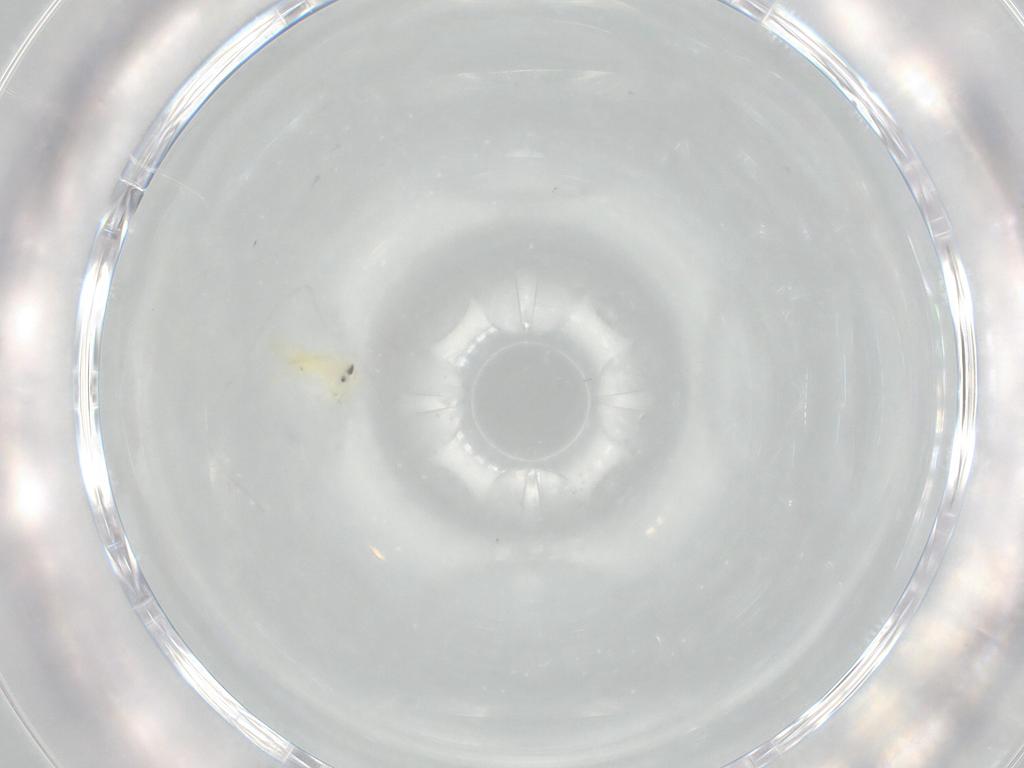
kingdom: Animalia
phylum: Arthropoda
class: Insecta
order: Hemiptera
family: Aleyrodidae
